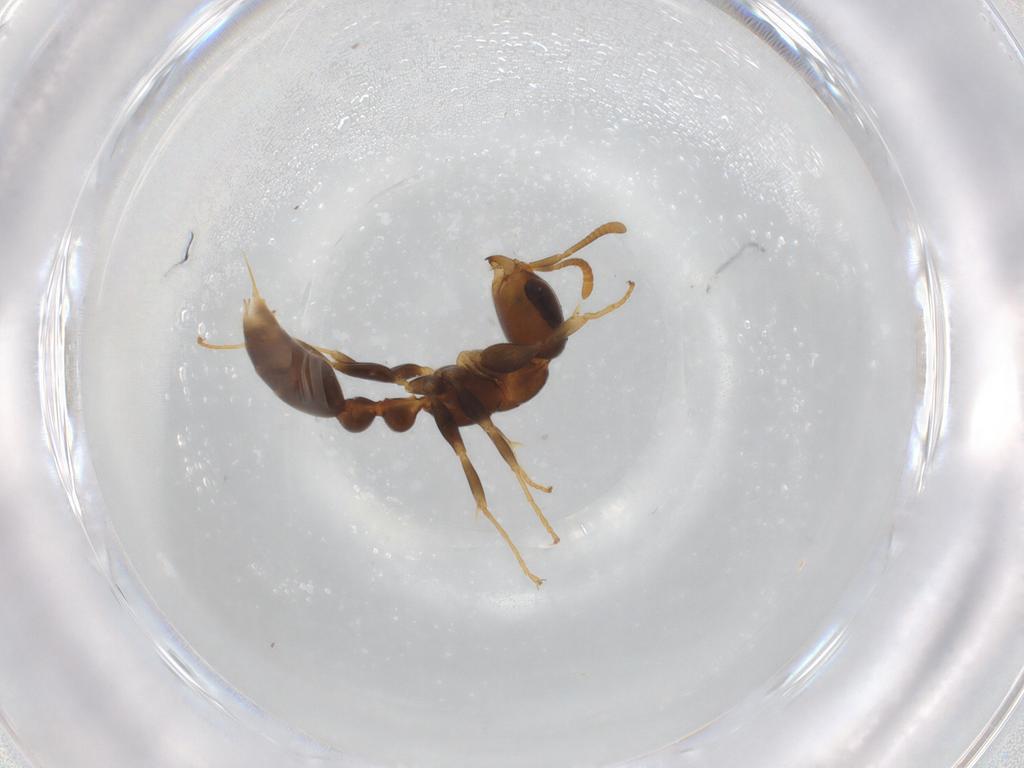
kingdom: Animalia
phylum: Arthropoda
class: Insecta
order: Hymenoptera
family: Formicidae
